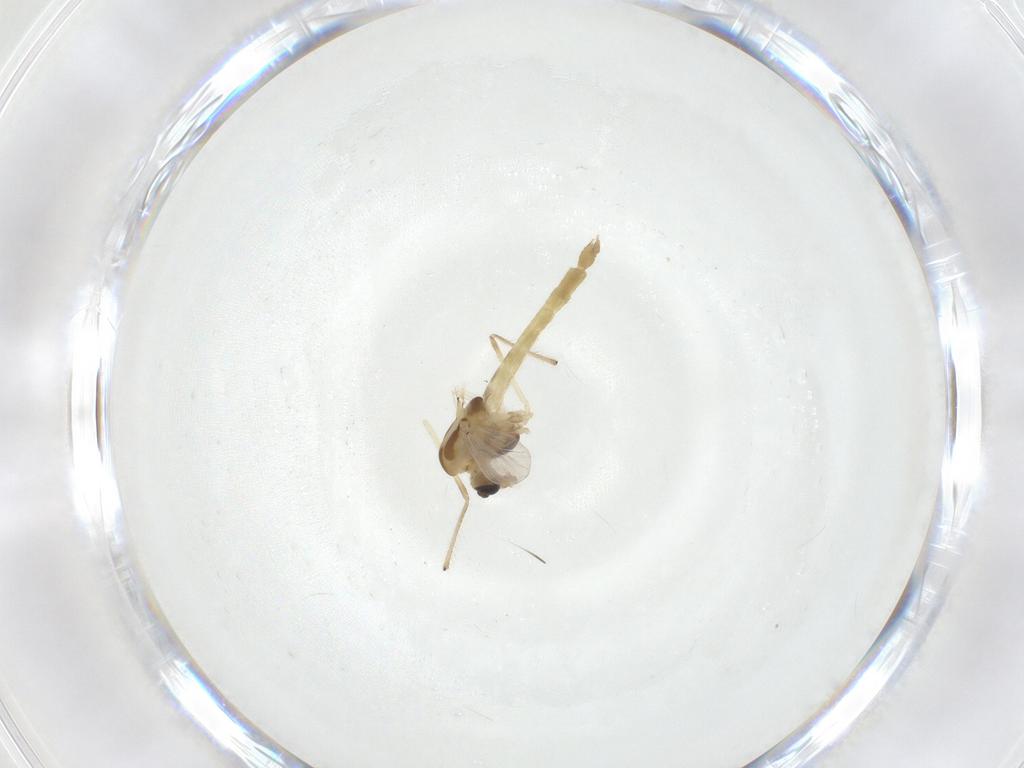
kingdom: Animalia
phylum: Arthropoda
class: Insecta
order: Diptera
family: Chironomidae
